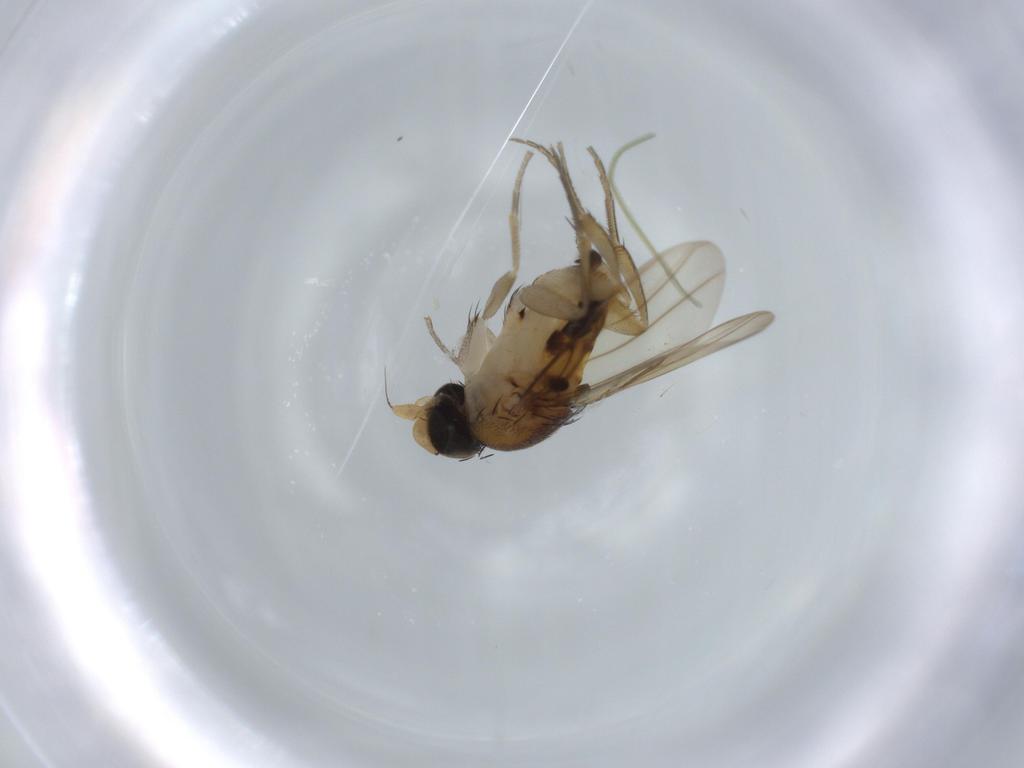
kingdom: Animalia
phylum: Arthropoda
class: Insecta
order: Diptera
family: Phoridae
